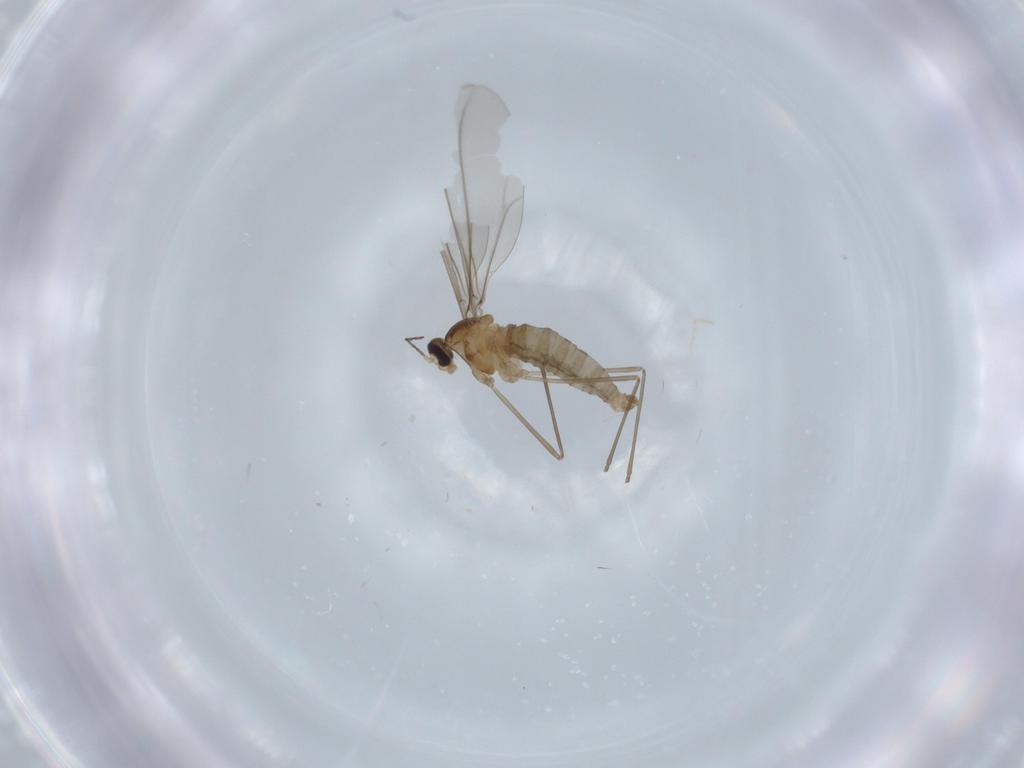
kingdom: Animalia
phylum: Arthropoda
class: Insecta
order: Diptera
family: Cecidomyiidae
